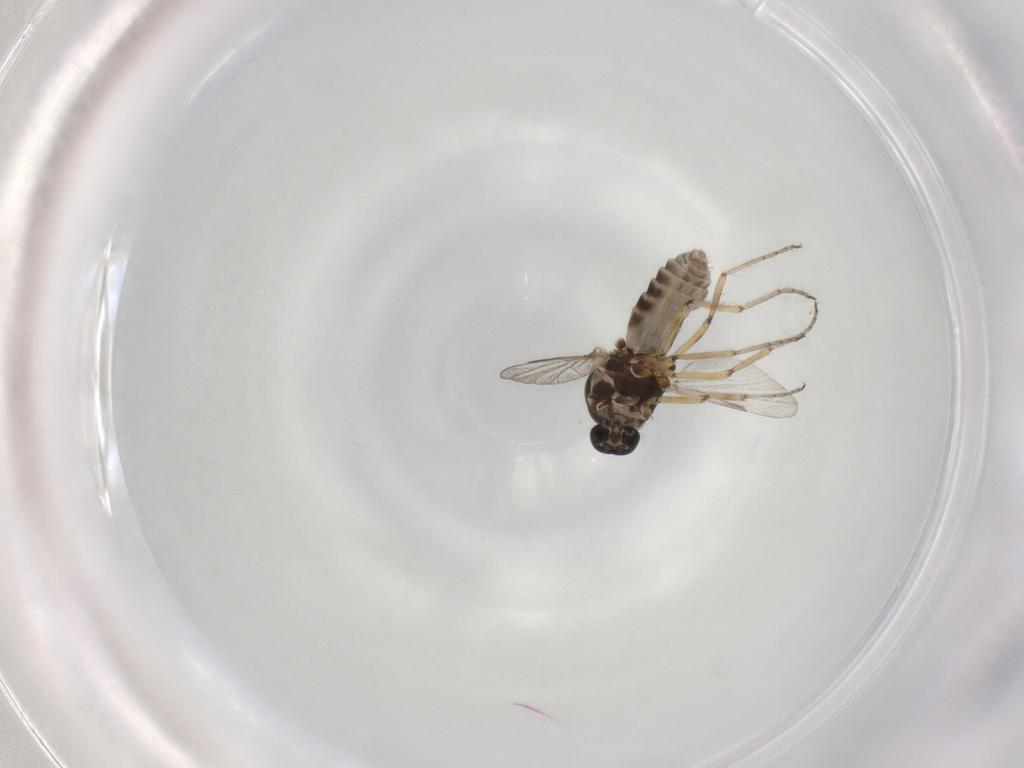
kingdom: Animalia
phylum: Arthropoda
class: Insecta
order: Diptera
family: Ceratopogonidae
